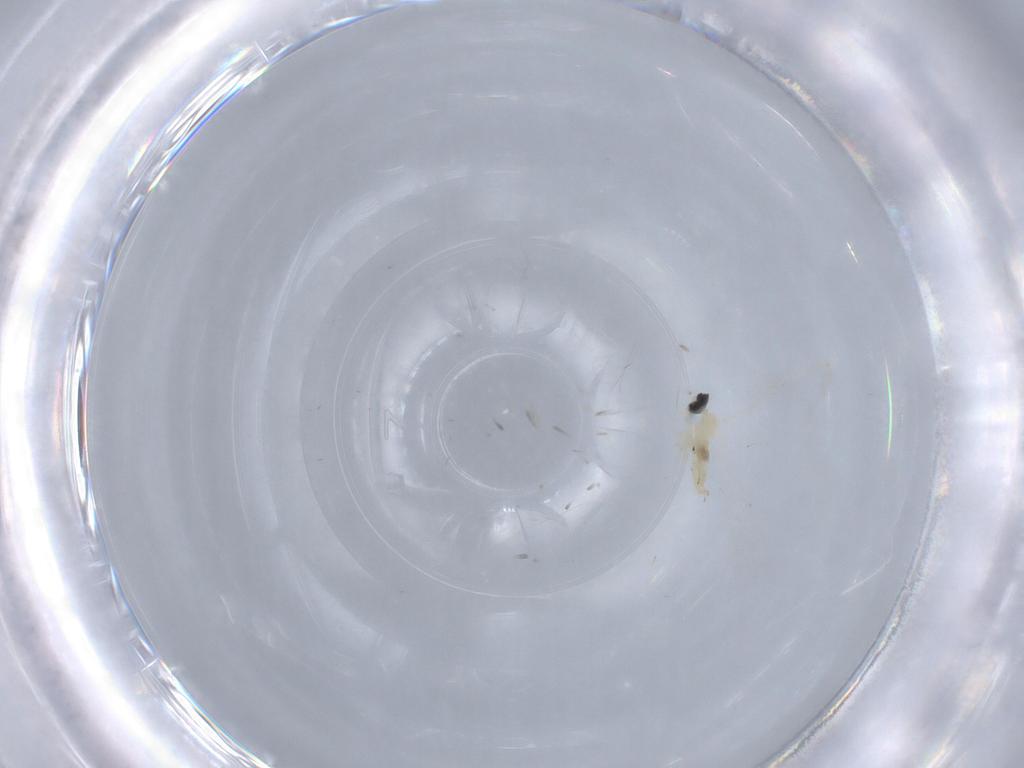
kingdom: Animalia
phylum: Arthropoda
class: Insecta
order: Diptera
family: Cecidomyiidae
